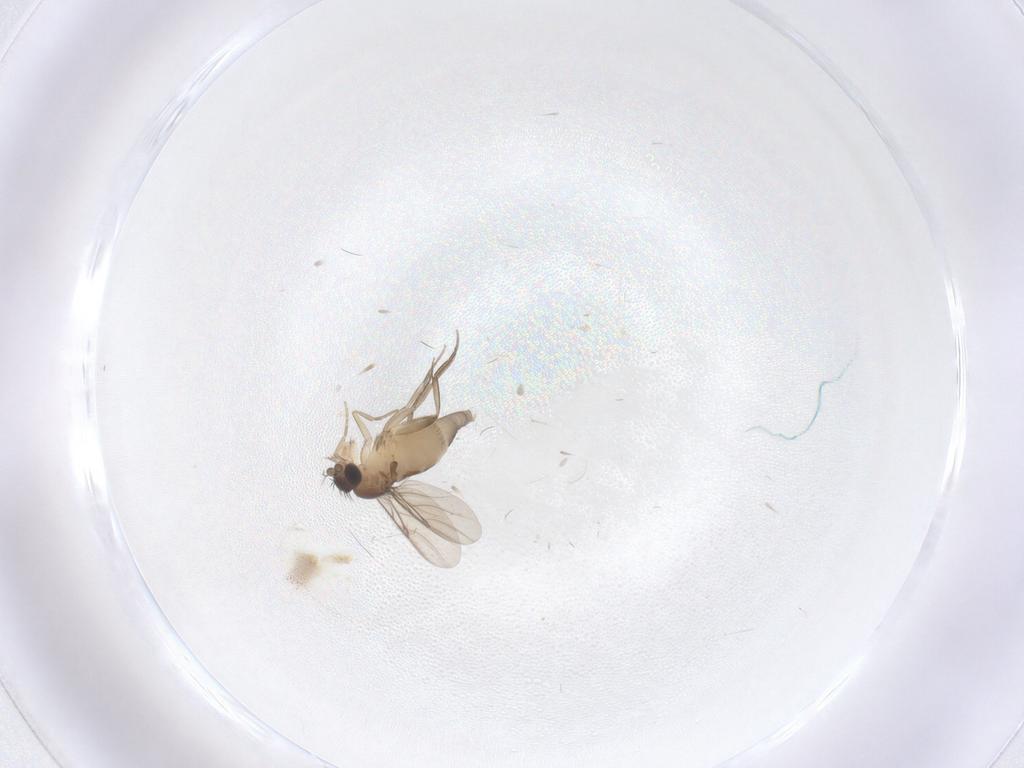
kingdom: Animalia
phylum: Arthropoda
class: Insecta
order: Diptera
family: Phoridae
